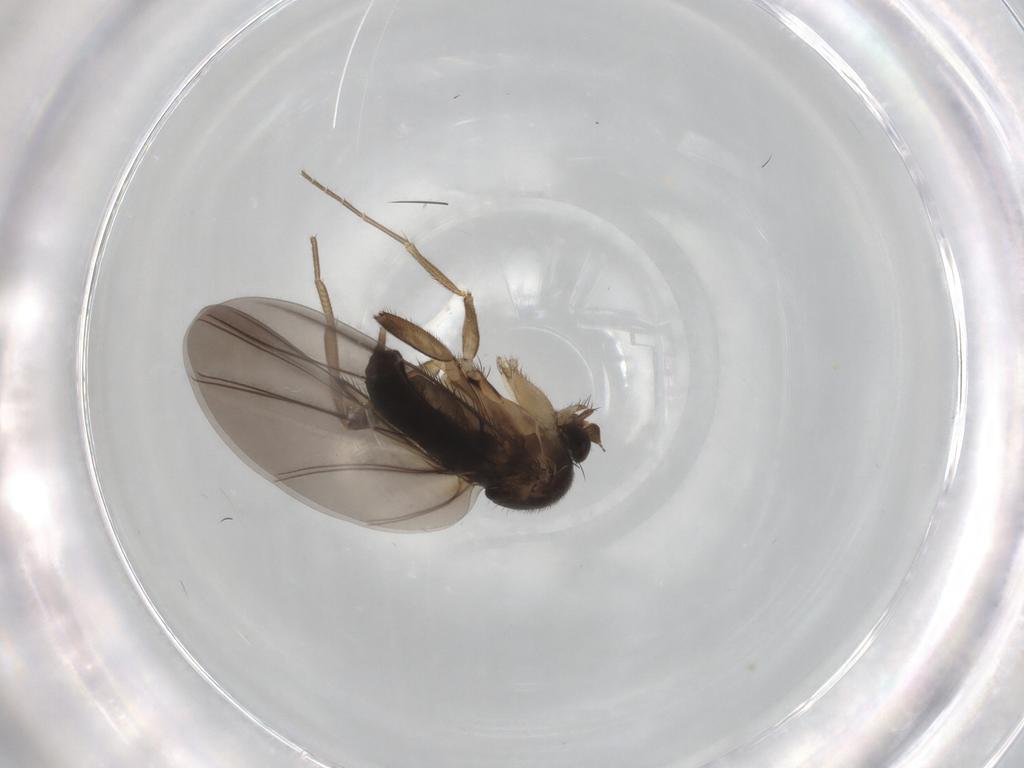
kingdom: Animalia
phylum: Arthropoda
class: Insecta
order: Diptera
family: Phoridae
